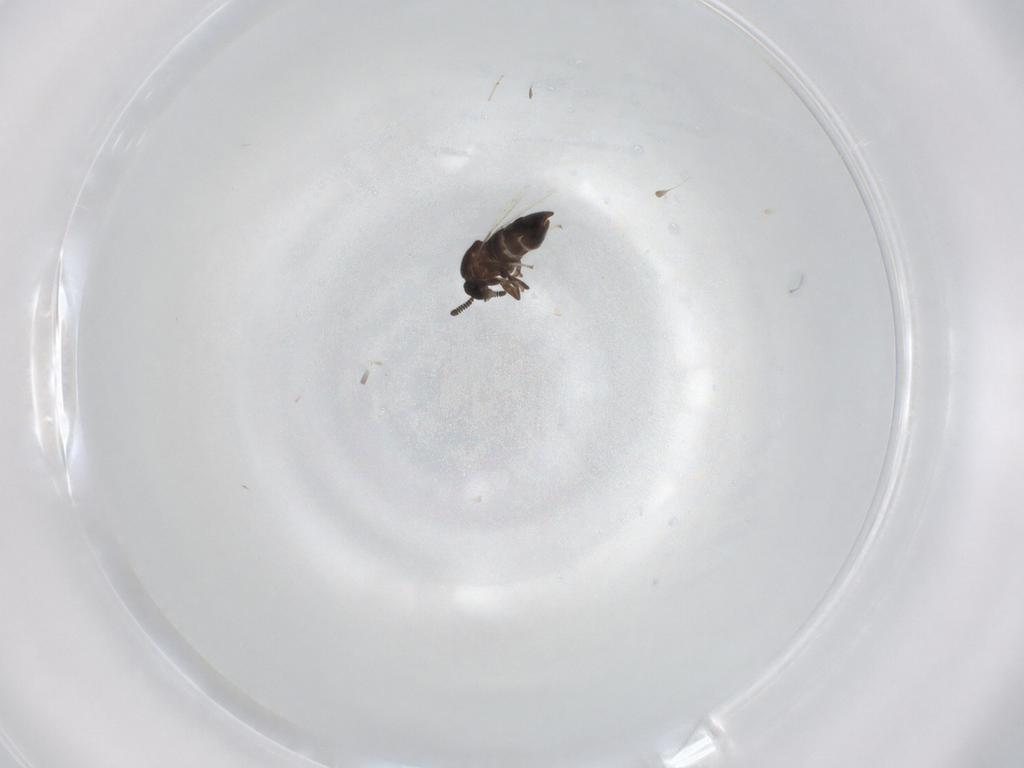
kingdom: Animalia
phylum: Arthropoda
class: Insecta
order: Diptera
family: Scatopsidae
